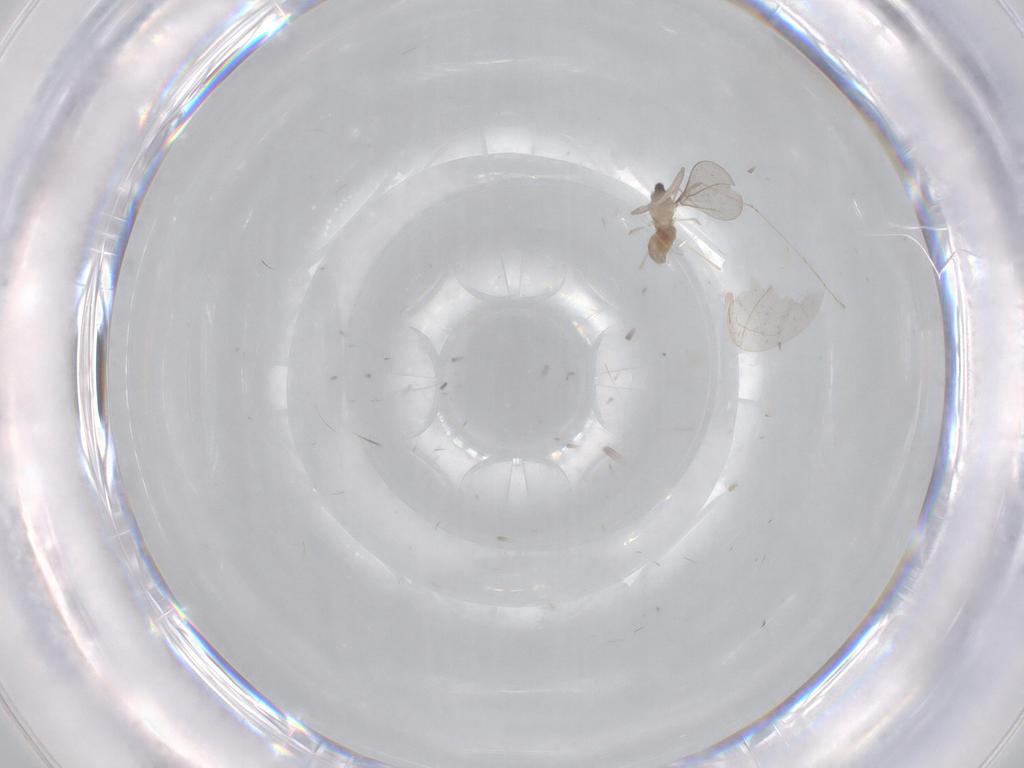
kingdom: Animalia
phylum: Arthropoda
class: Insecta
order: Diptera
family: Cecidomyiidae
